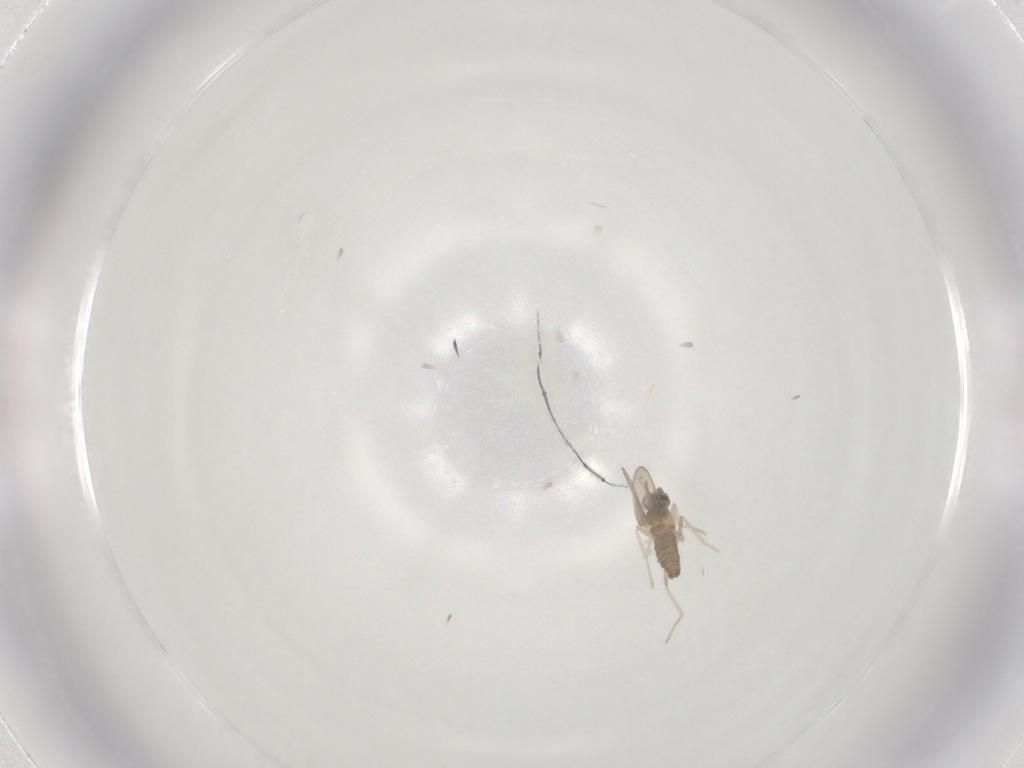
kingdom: Animalia
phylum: Arthropoda
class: Insecta
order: Diptera
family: Cecidomyiidae
